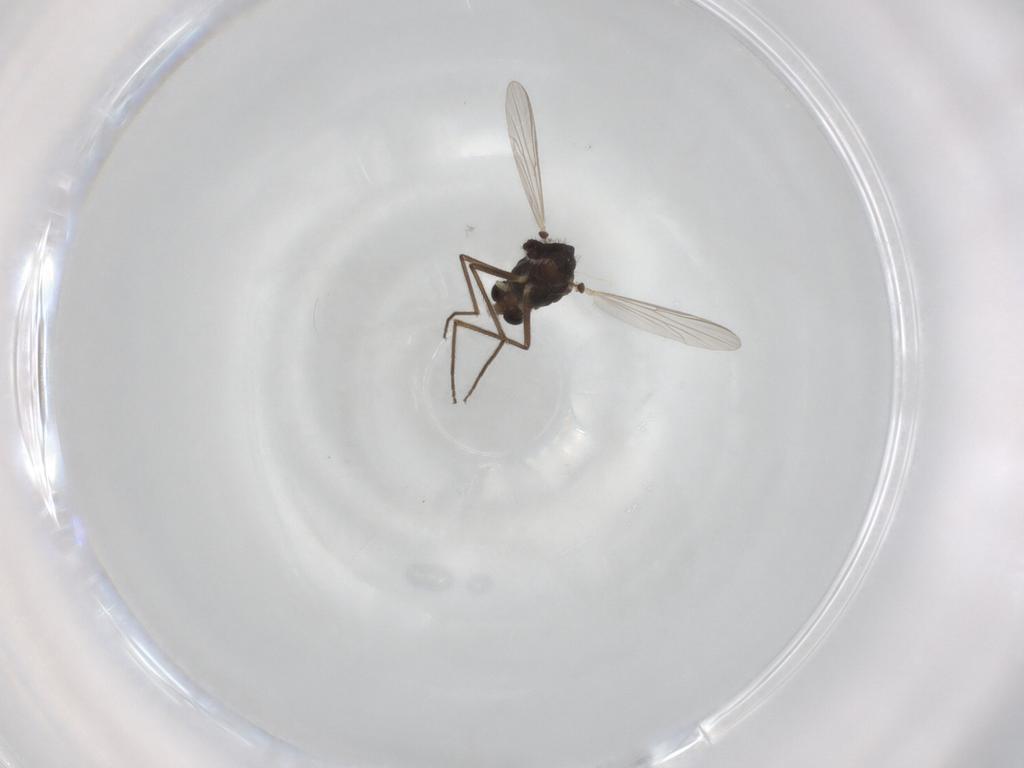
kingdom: Animalia
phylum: Arthropoda
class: Insecta
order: Diptera
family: Chironomidae
